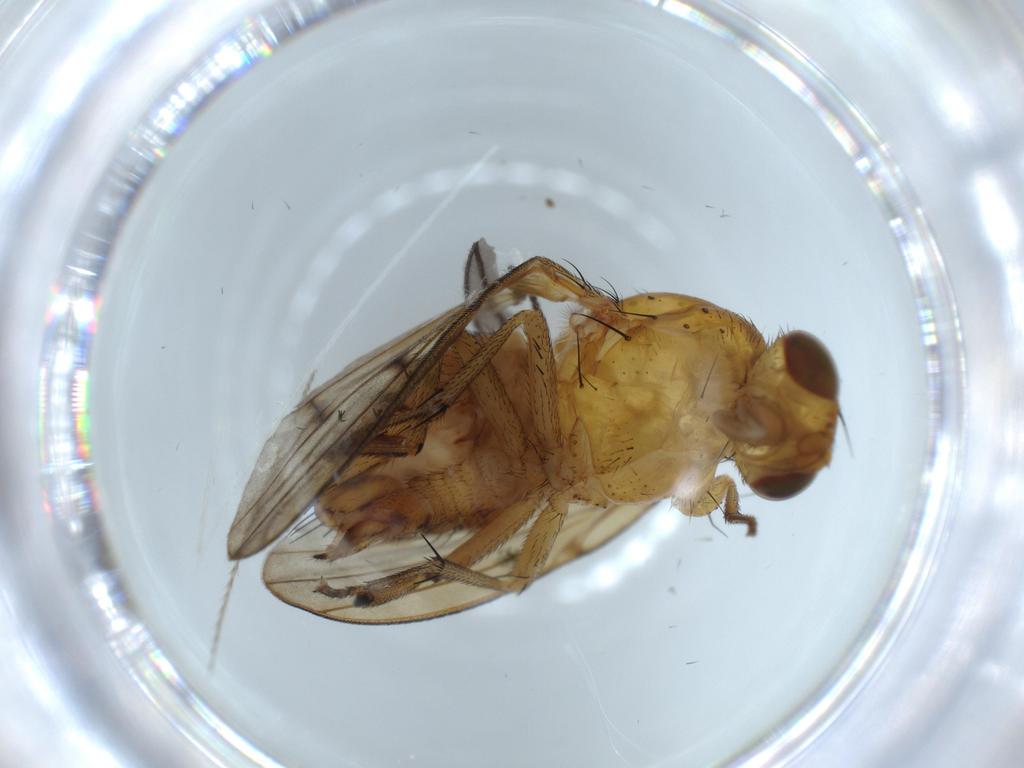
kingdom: Animalia
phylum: Arthropoda
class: Insecta
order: Diptera
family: Sciaridae
